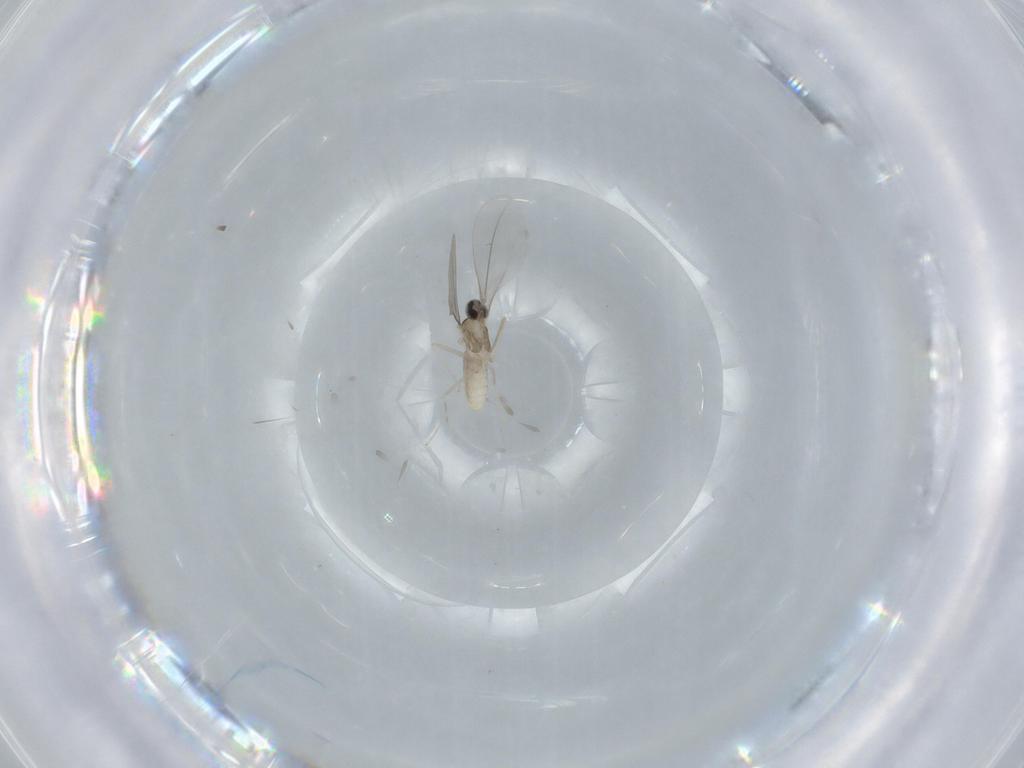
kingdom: Animalia
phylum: Arthropoda
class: Insecta
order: Diptera
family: Cecidomyiidae
